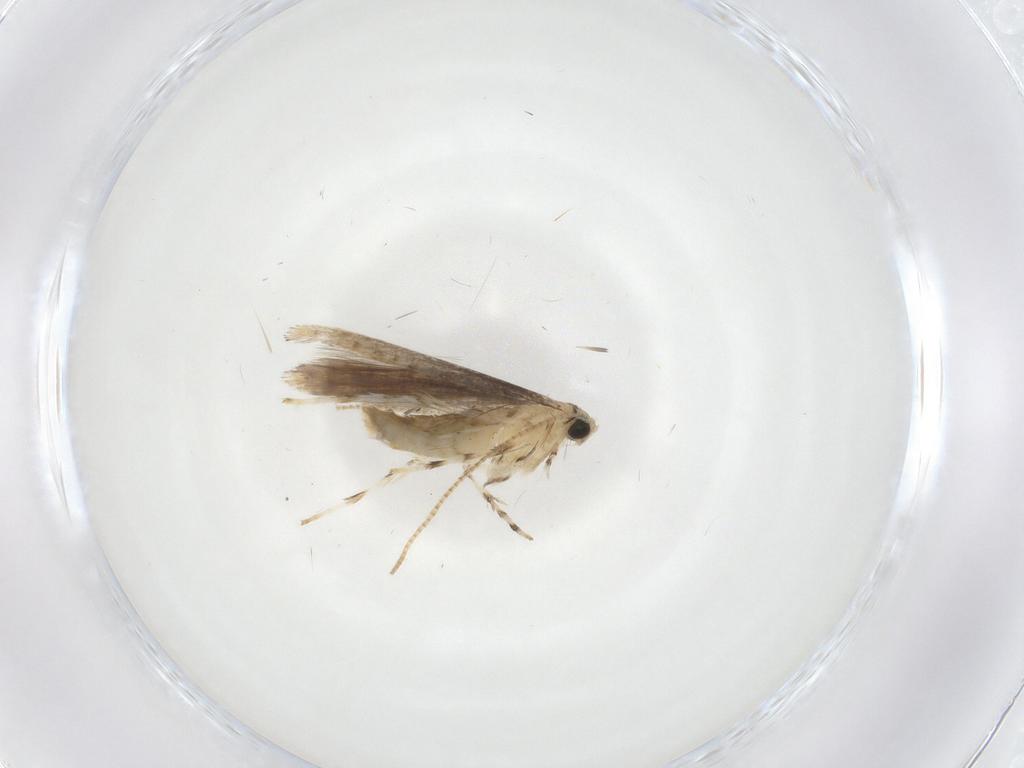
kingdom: Animalia
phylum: Arthropoda
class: Insecta
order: Lepidoptera
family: Gracillariidae
